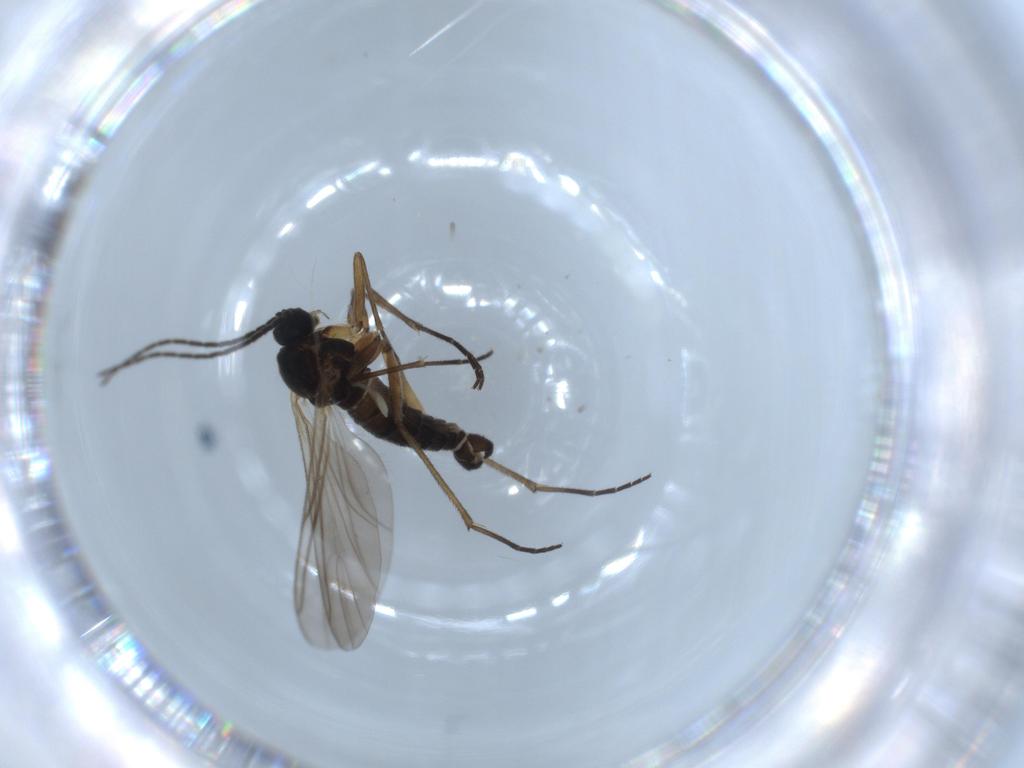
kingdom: Animalia
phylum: Arthropoda
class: Insecta
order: Diptera
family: Sciaridae
